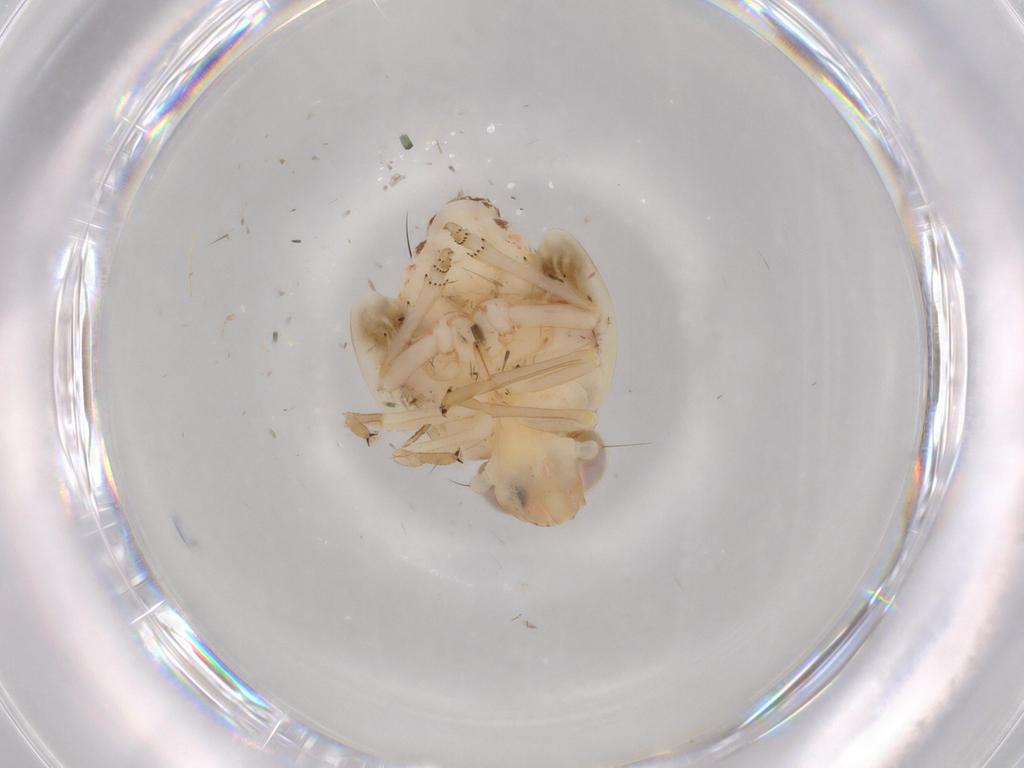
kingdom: Animalia
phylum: Arthropoda
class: Insecta
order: Hemiptera
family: Nogodinidae
